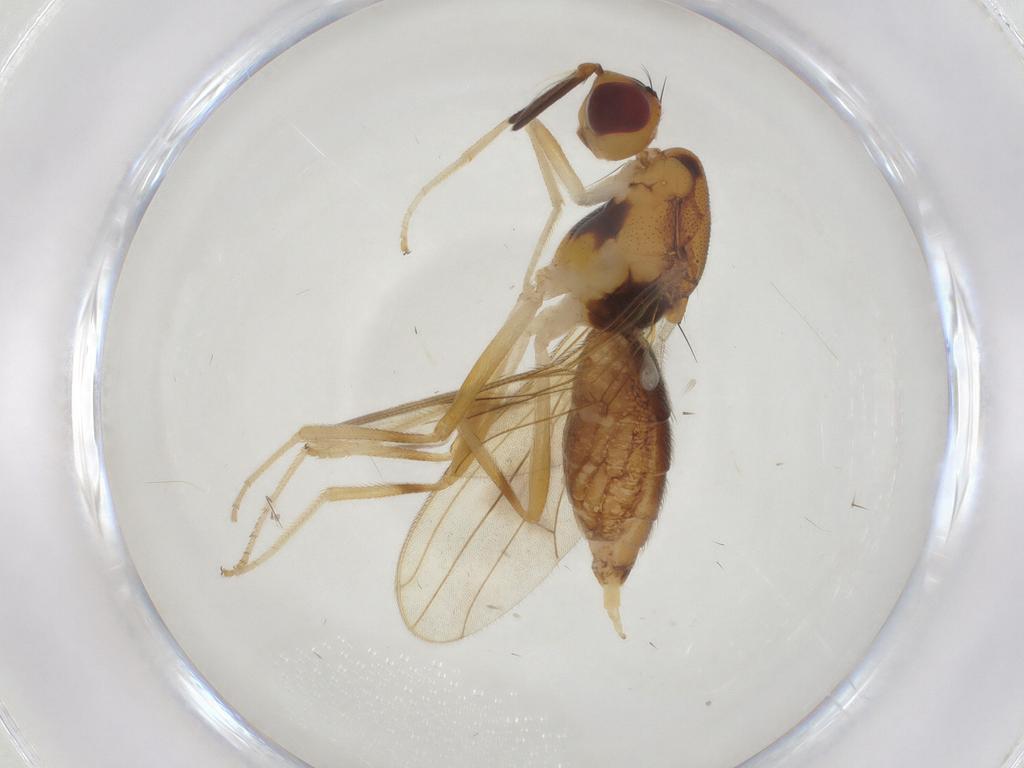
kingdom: Animalia
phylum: Arthropoda
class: Insecta
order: Diptera
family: Psilidae
